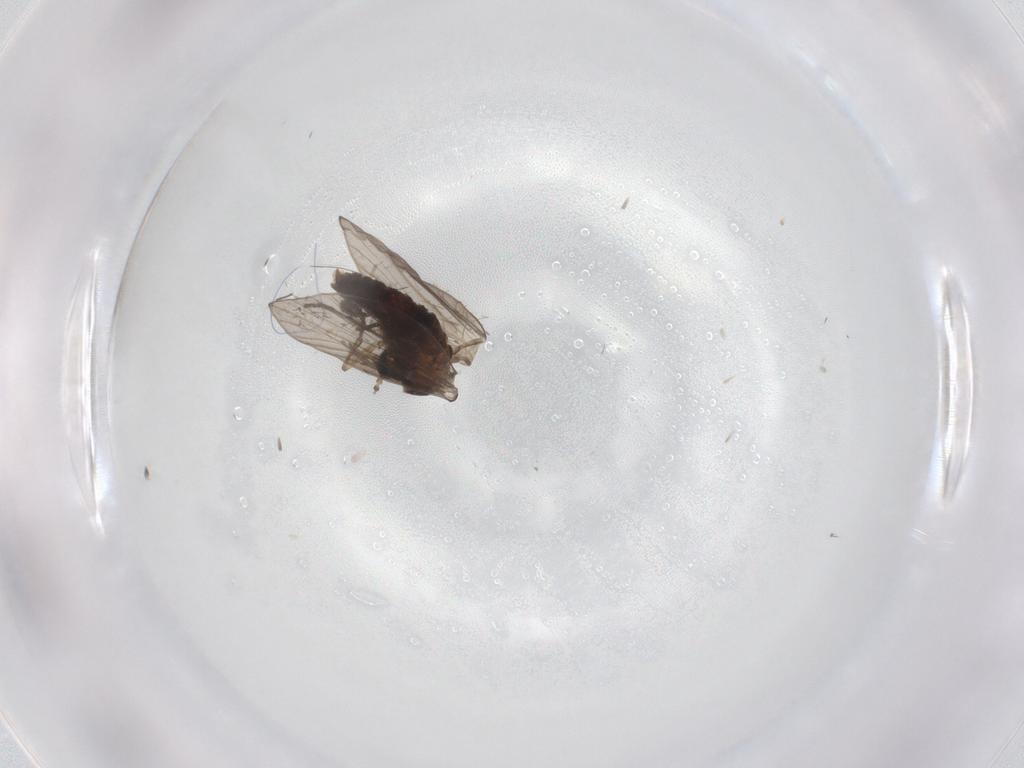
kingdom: Animalia
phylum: Arthropoda
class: Insecta
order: Diptera
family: Psychodidae
